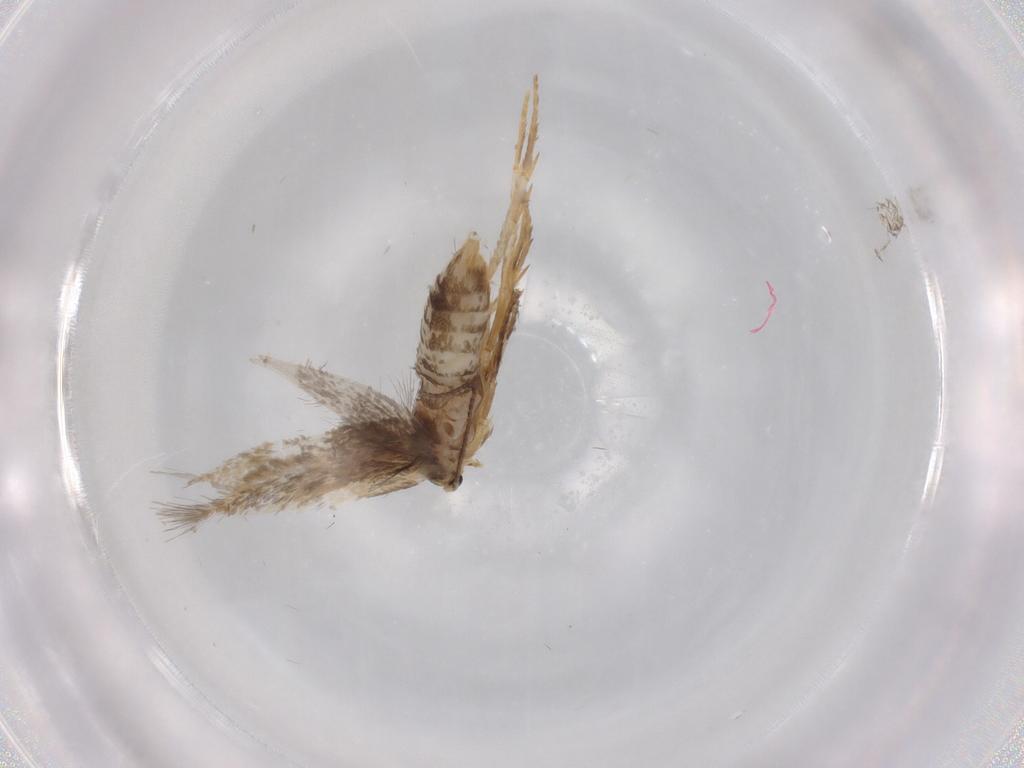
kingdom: Animalia
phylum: Arthropoda
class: Insecta
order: Lepidoptera
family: Nepticulidae
